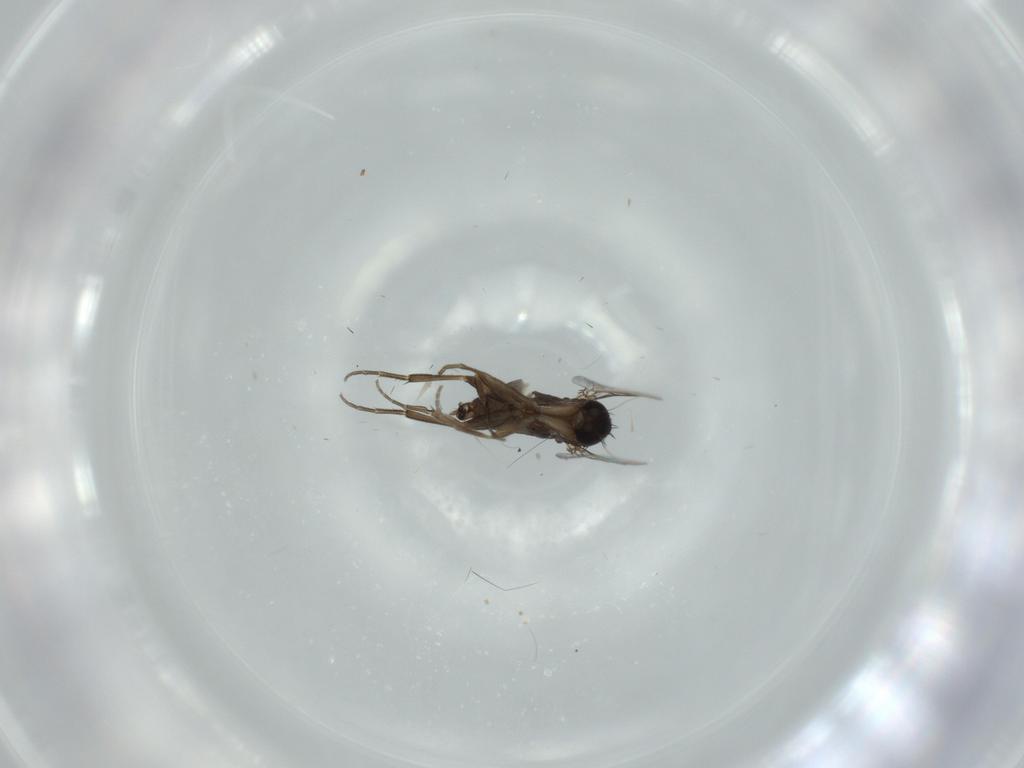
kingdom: Animalia
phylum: Arthropoda
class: Insecta
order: Diptera
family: Phoridae
